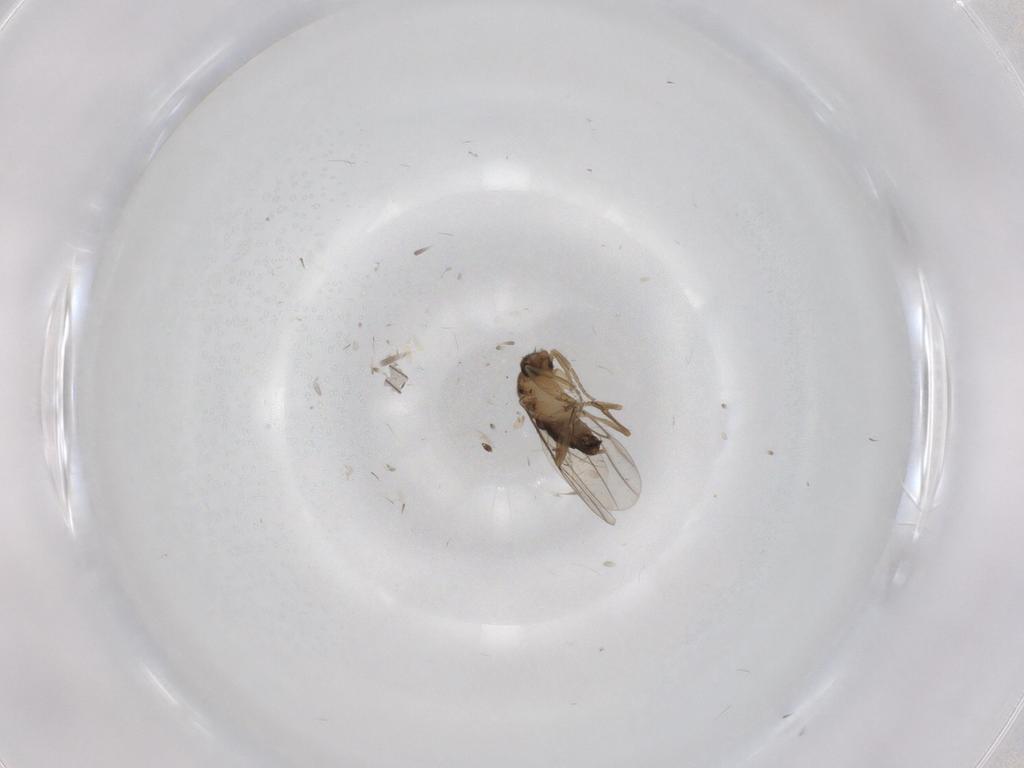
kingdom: Animalia
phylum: Arthropoda
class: Insecta
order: Diptera
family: Phoridae
